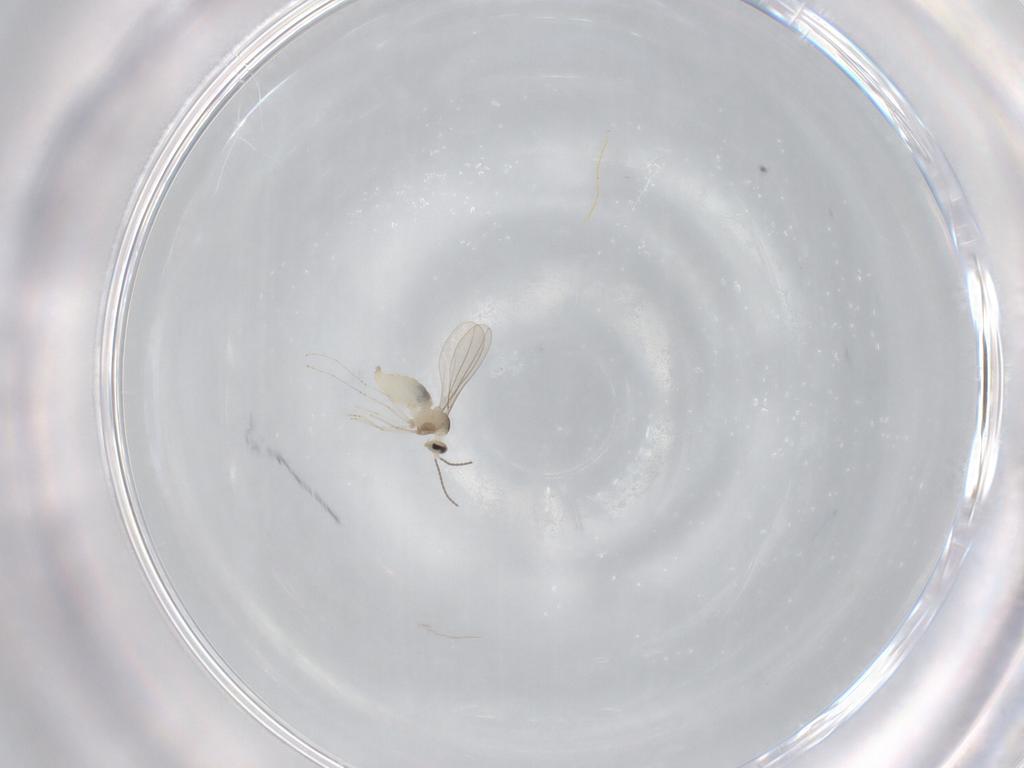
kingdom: Animalia
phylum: Arthropoda
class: Insecta
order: Diptera
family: Cecidomyiidae
